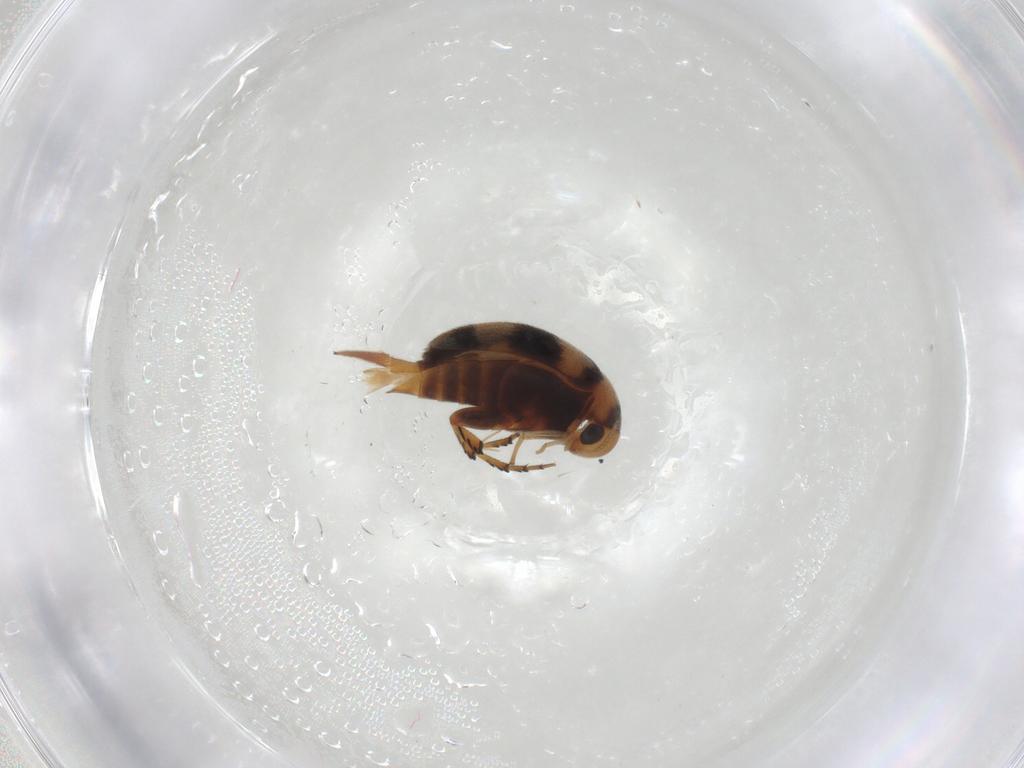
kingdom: Animalia
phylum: Arthropoda
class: Insecta
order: Coleoptera
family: Mordellidae
